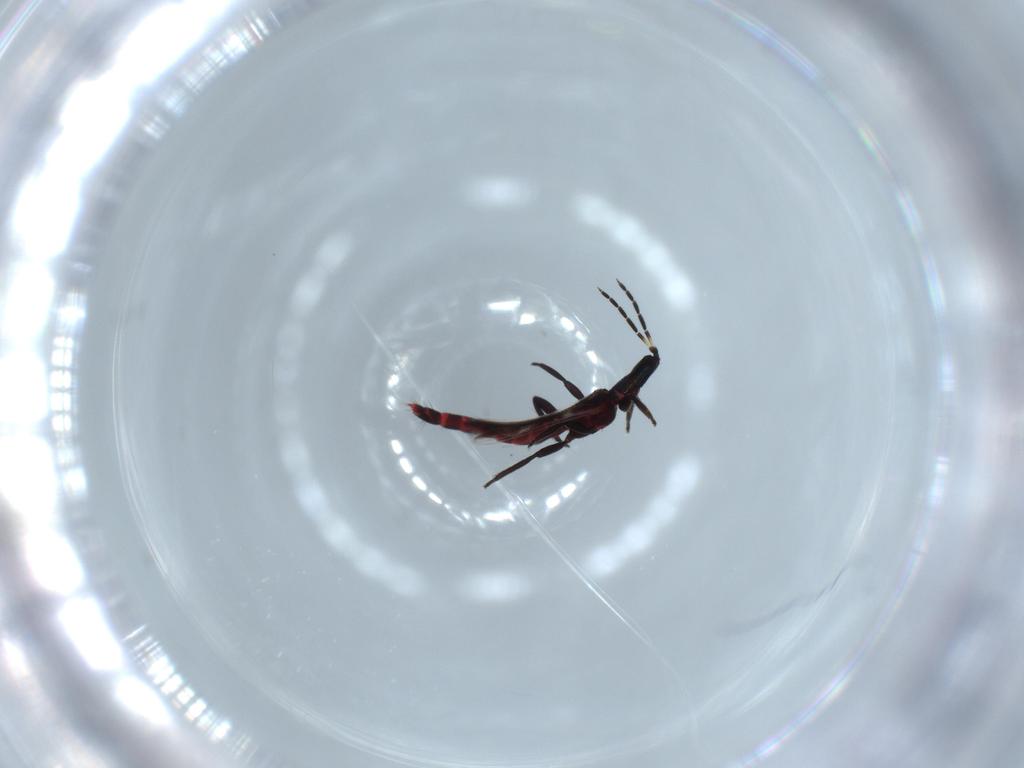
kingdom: Animalia
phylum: Arthropoda
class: Insecta
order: Thysanoptera
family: Aeolothripidae
